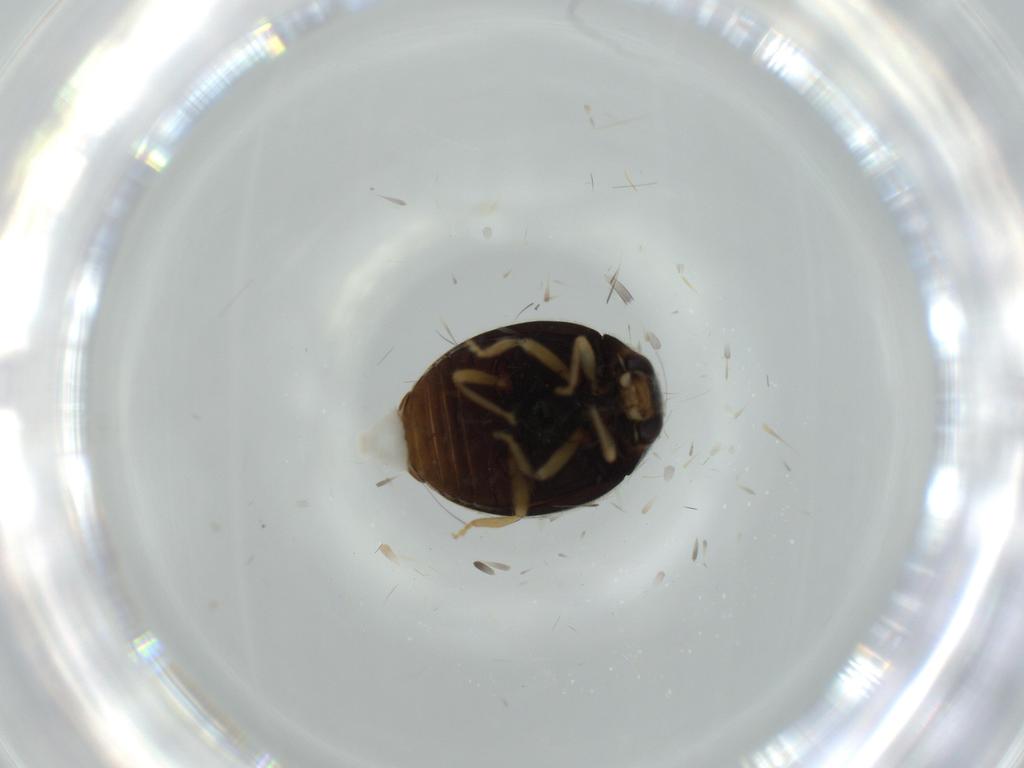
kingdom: Animalia
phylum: Arthropoda
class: Insecta
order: Coleoptera
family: Coccinellidae
